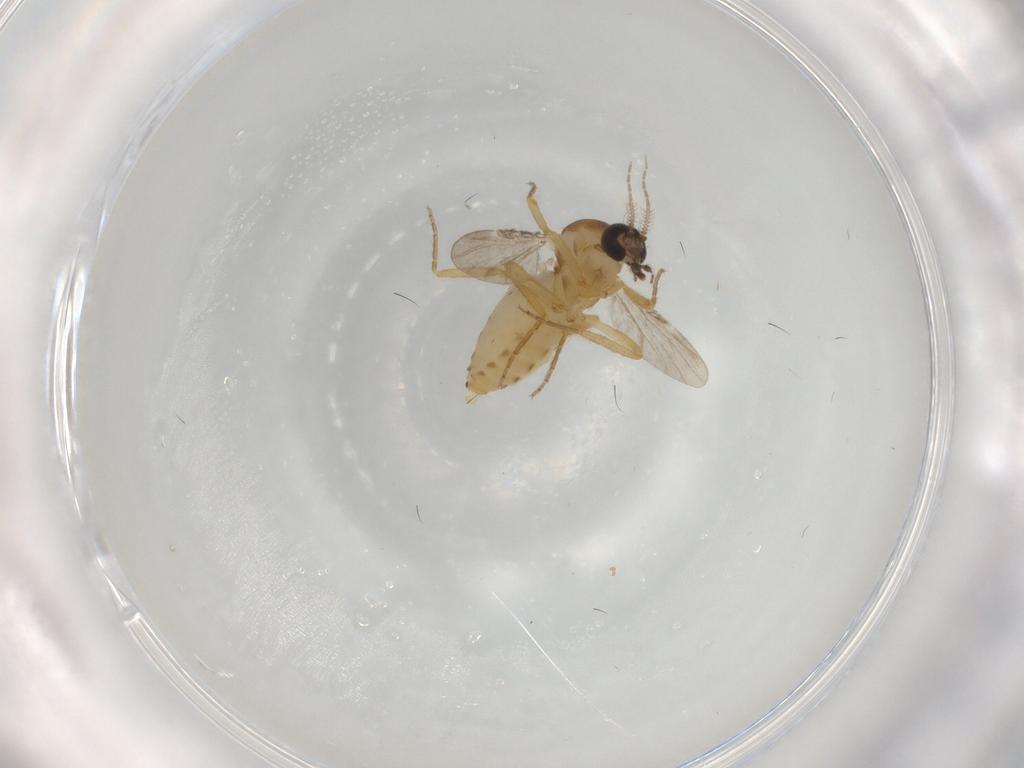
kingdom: Animalia
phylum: Arthropoda
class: Insecta
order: Diptera
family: Ceratopogonidae
